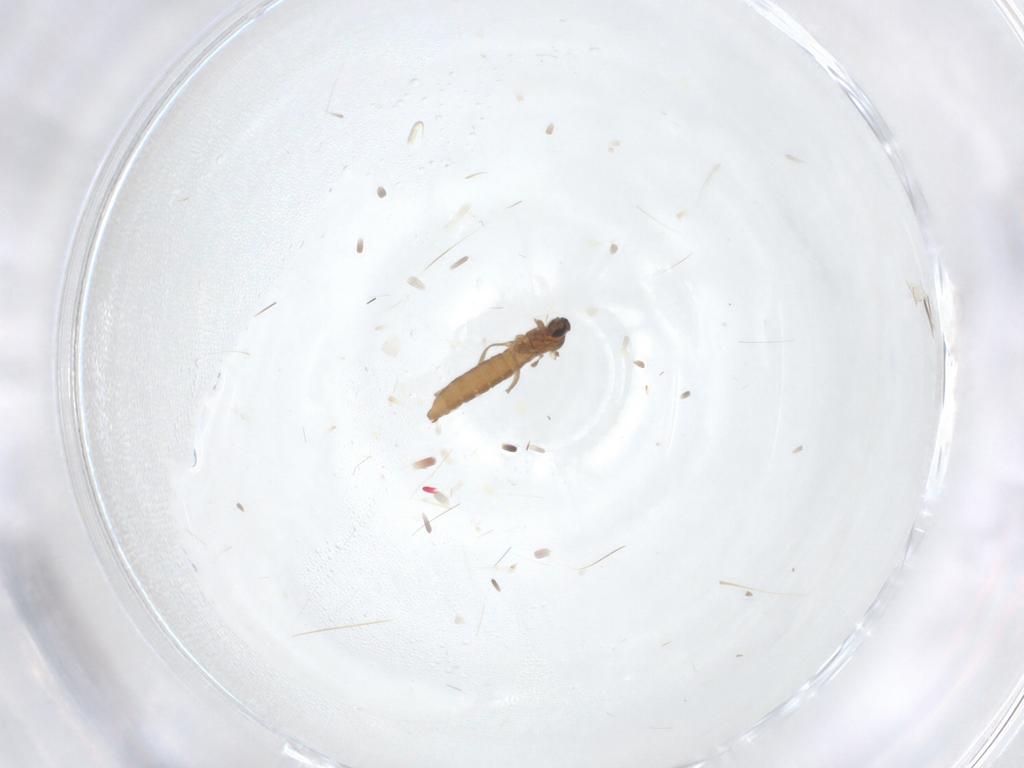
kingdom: Animalia
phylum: Arthropoda
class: Insecta
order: Diptera
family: Cecidomyiidae
